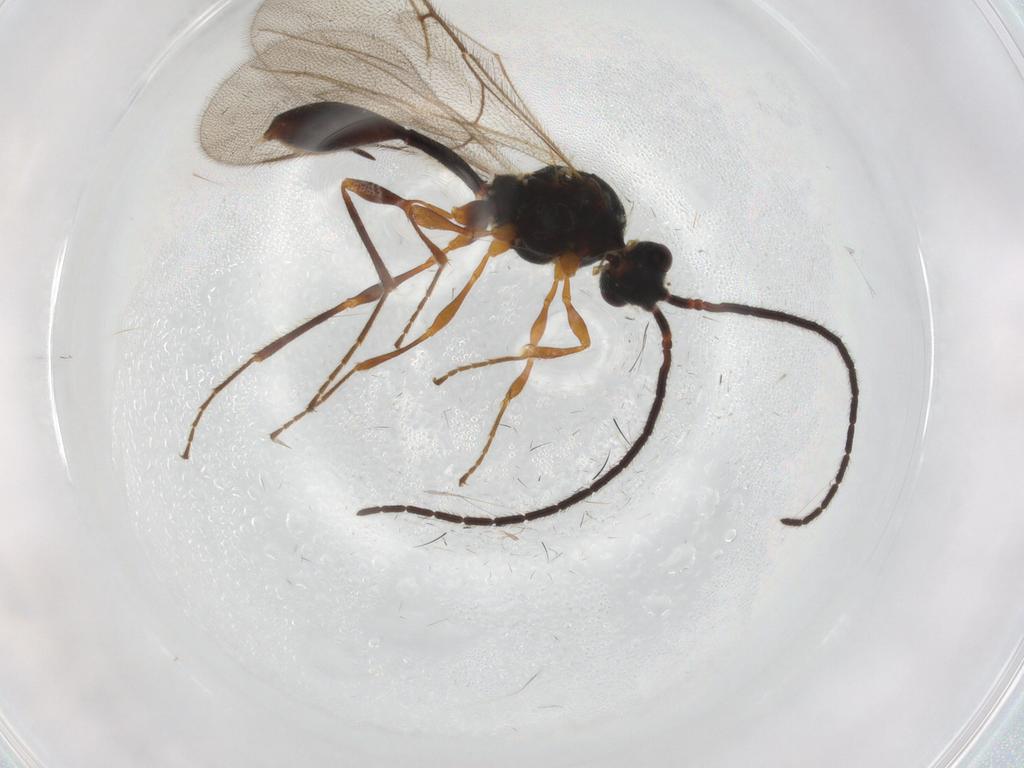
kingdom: Animalia
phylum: Arthropoda
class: Insecta
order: Hymenoptera
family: Figitidae
